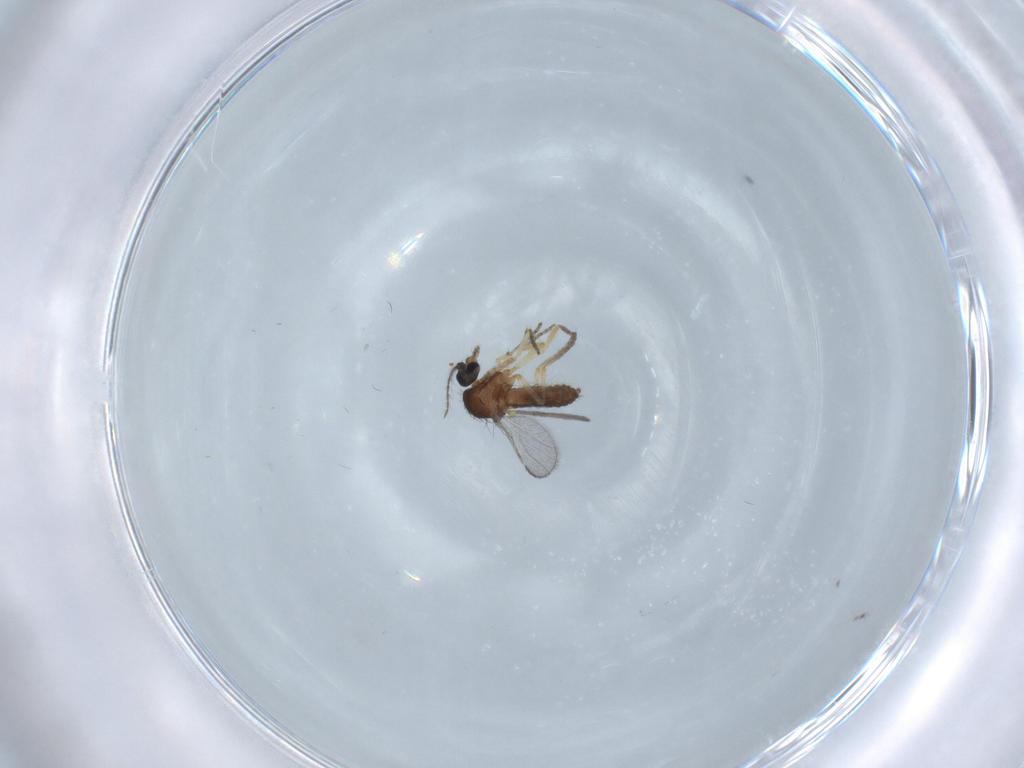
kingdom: Animalia
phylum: Arthropoda
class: Insecta
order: Diptera
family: Ceratopogonidae
